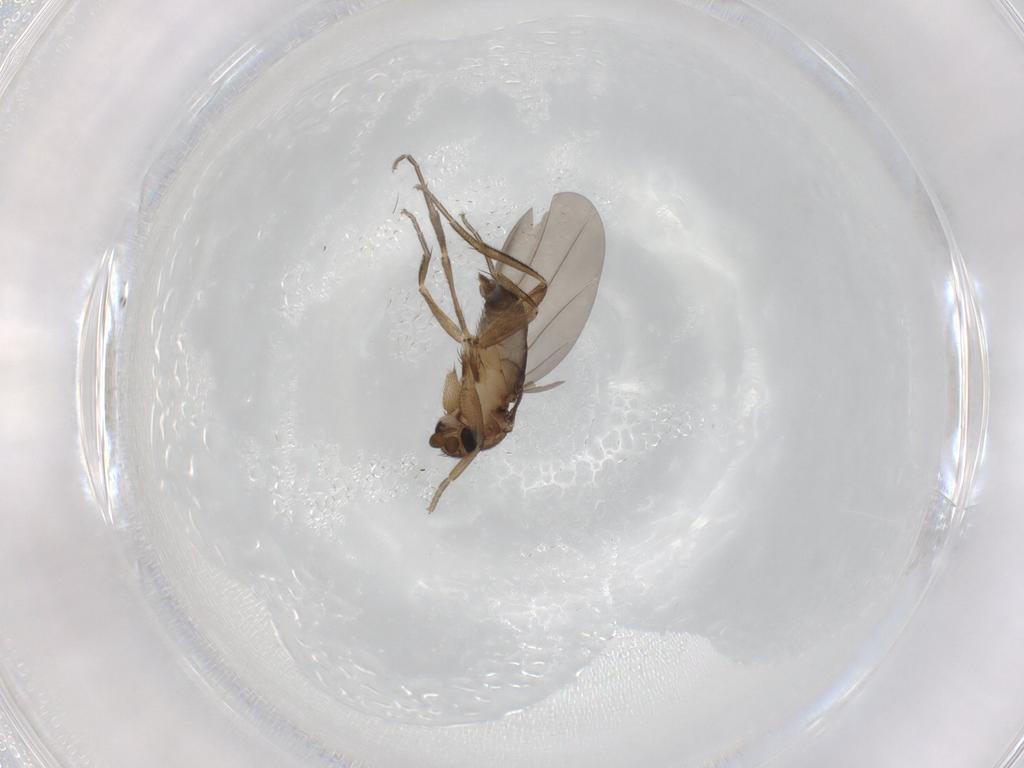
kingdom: Animalia
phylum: Arthropoda
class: Insecta
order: Diptera
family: Phoridae
